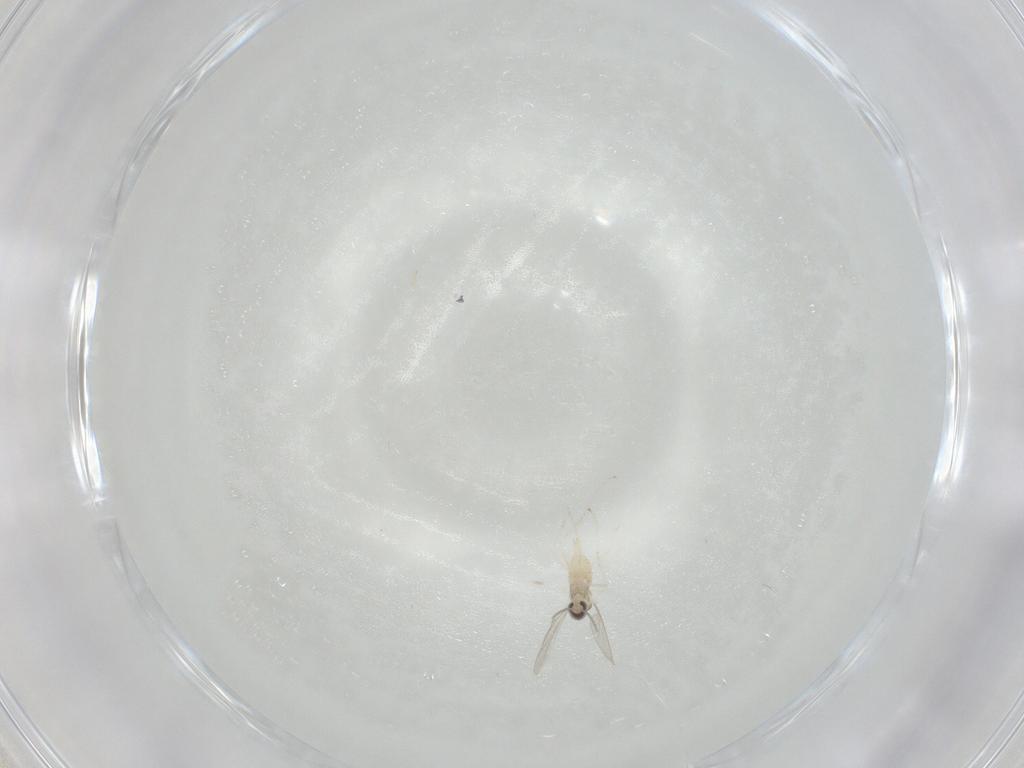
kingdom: Animalia
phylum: Arthropoda
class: Insecta
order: Diptera
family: Cecidomyiidae
